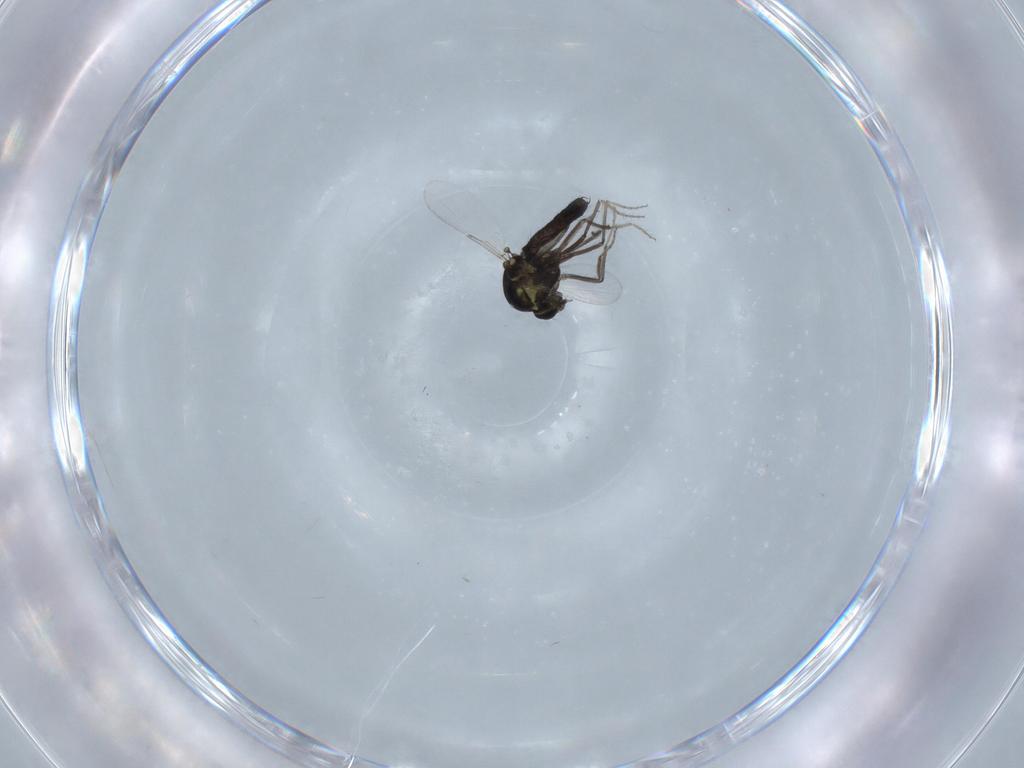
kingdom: Animalia
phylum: Arthropoda
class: Insecta
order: Diptera
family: Ceratopogonidae
